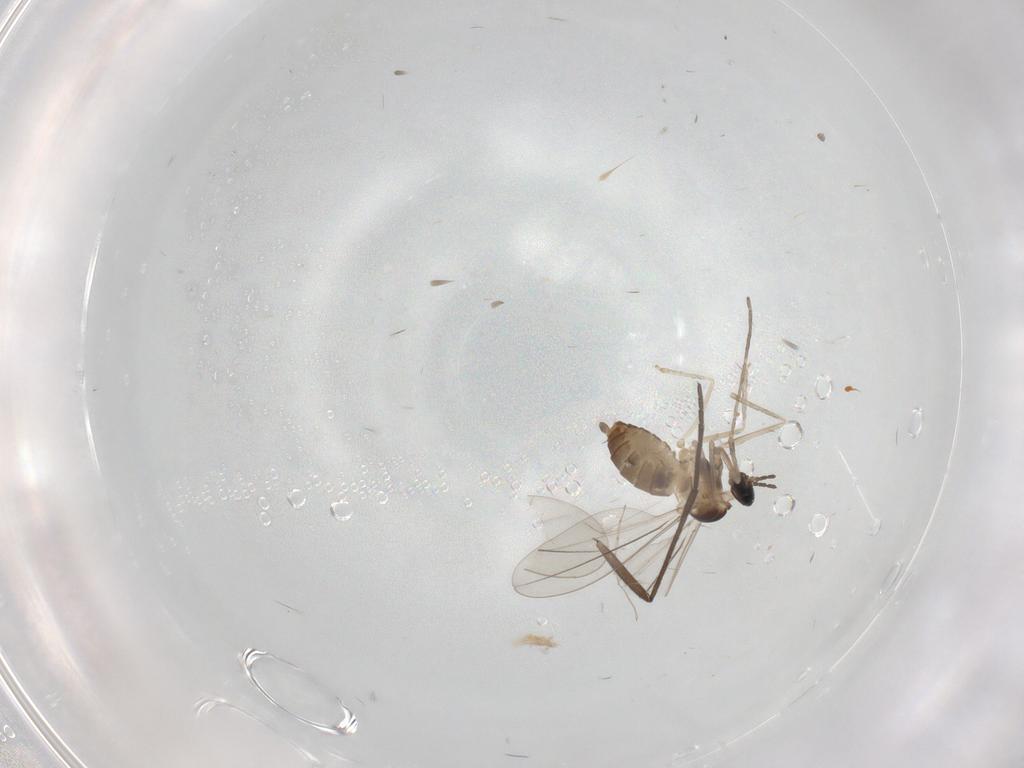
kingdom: Animalia
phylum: Arthropoda
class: Insecta
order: Diptera
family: Cecidomyiidae
